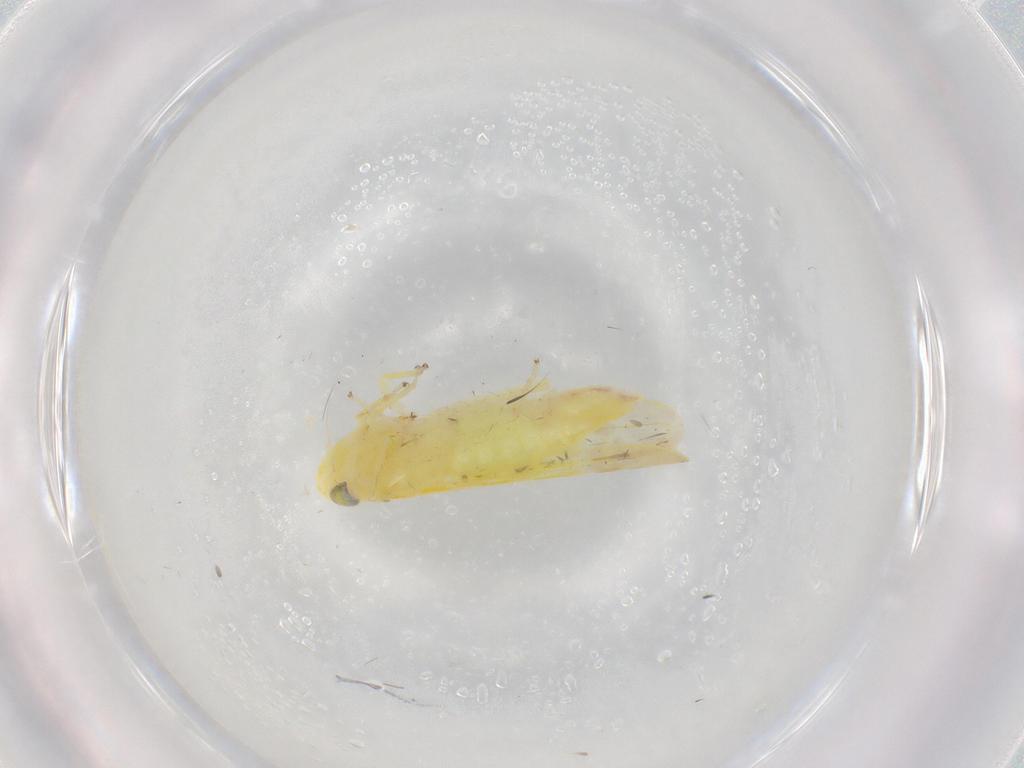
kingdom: Animalia
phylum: Arthropoda
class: Insecta
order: Hemiptera
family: Cicadellidae
